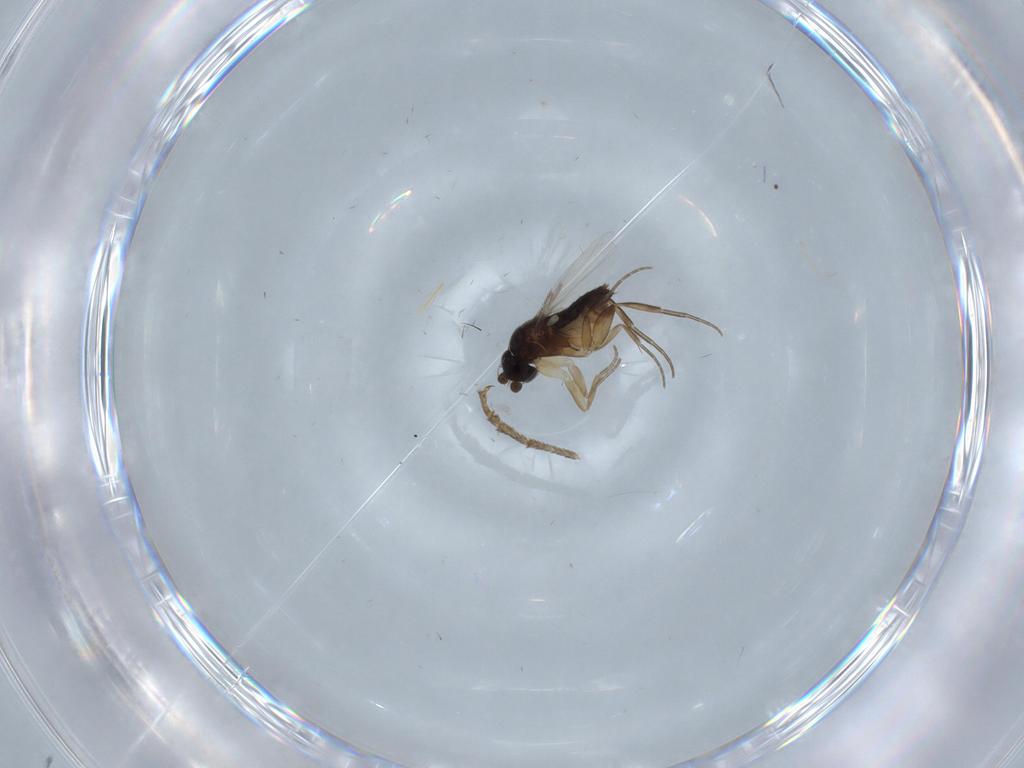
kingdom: Animalia
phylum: Arthropoda
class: Insecta
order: Diptera
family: Phoridae
